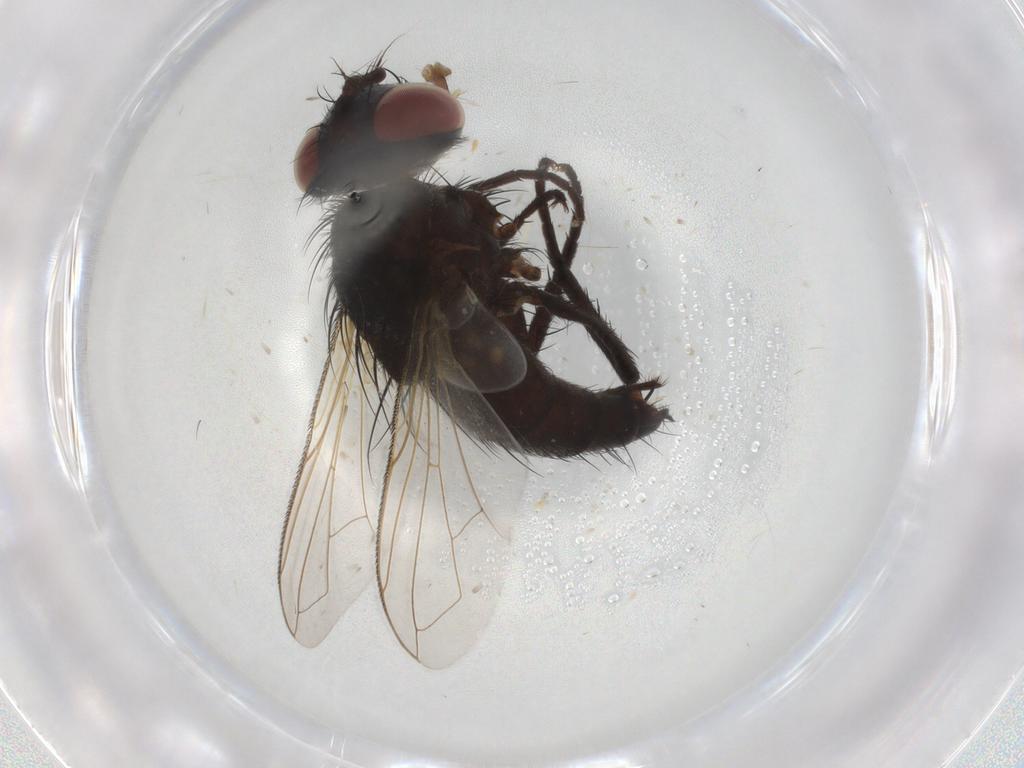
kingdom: Animalia
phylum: Arthropoda
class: Insecta
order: Diptera
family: Tachinidae
